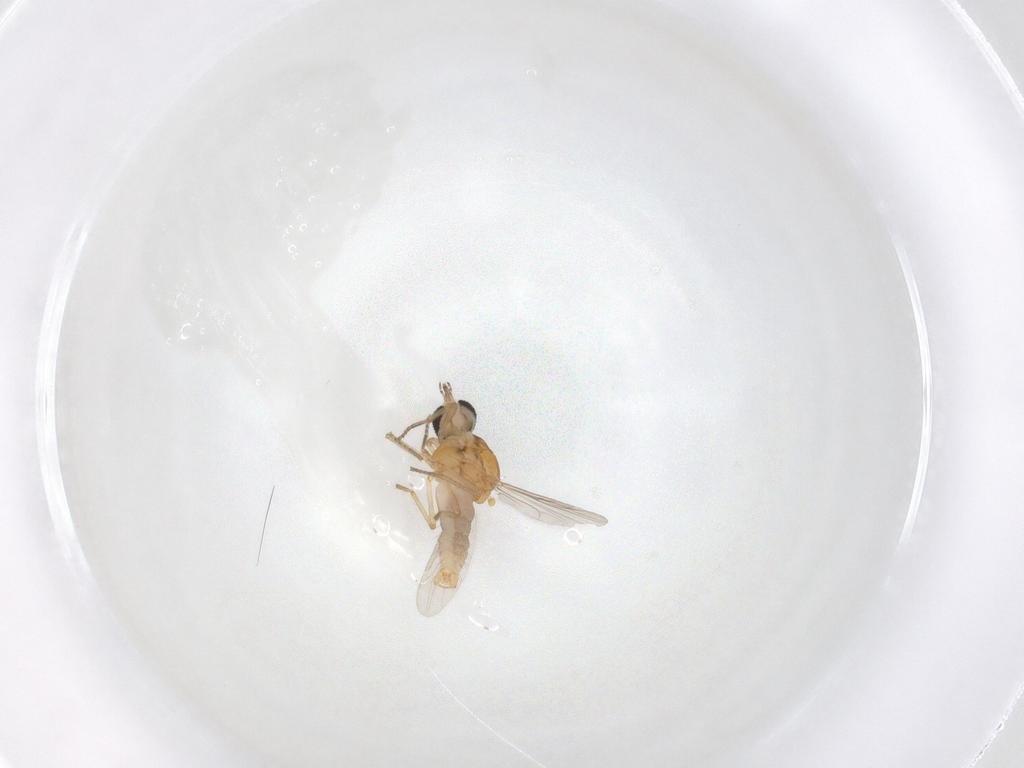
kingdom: Animalia
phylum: Arthropoda
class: Insecta
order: Diptera
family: Ceratopogonidae
